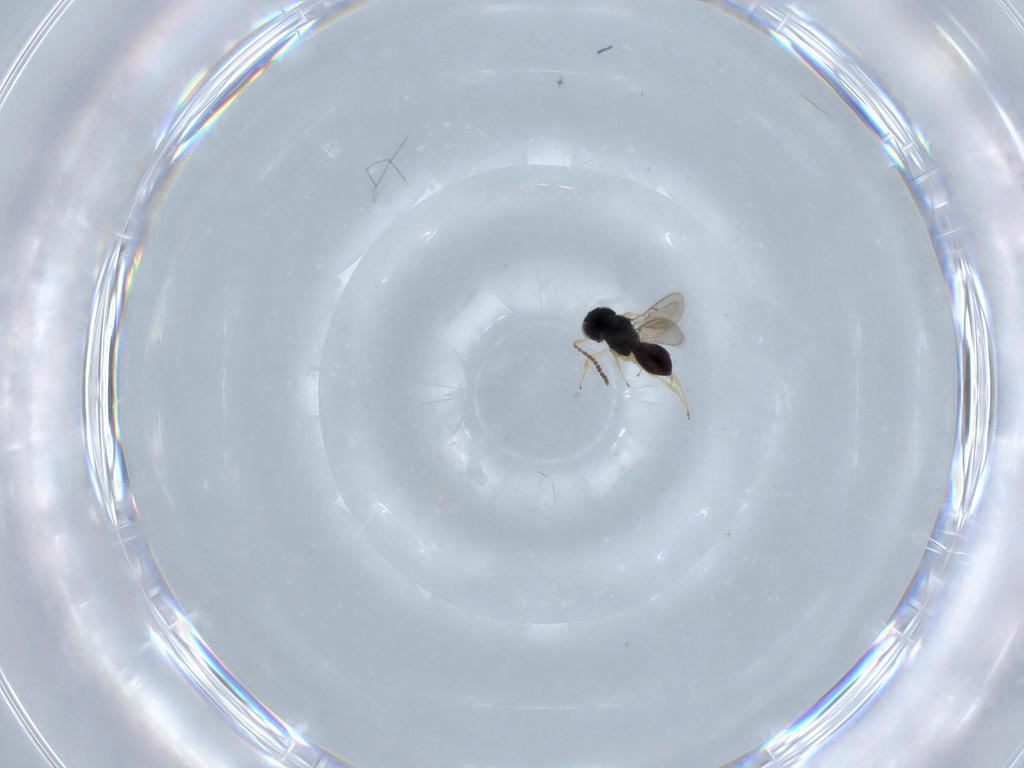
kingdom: Animalia
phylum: Arthropoda
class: Insecta
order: Hymenoptera
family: Scelionidae
